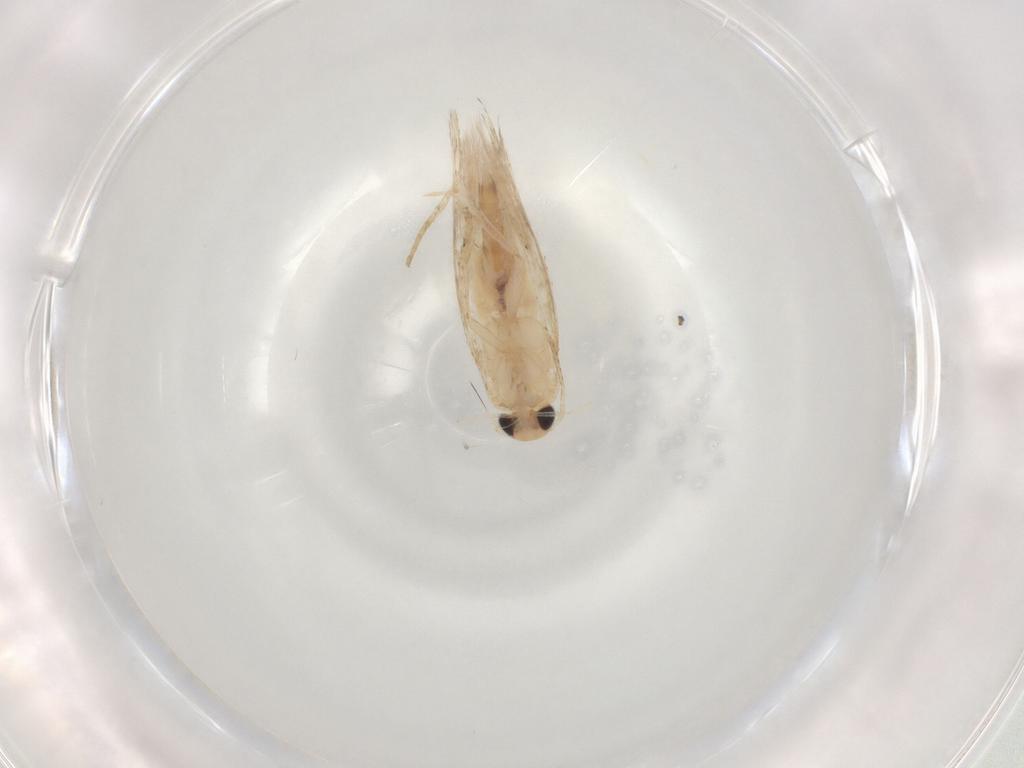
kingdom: Animalia
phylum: Arthropoda
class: Insecta
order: Lepidoptera
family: Gelechiidae
